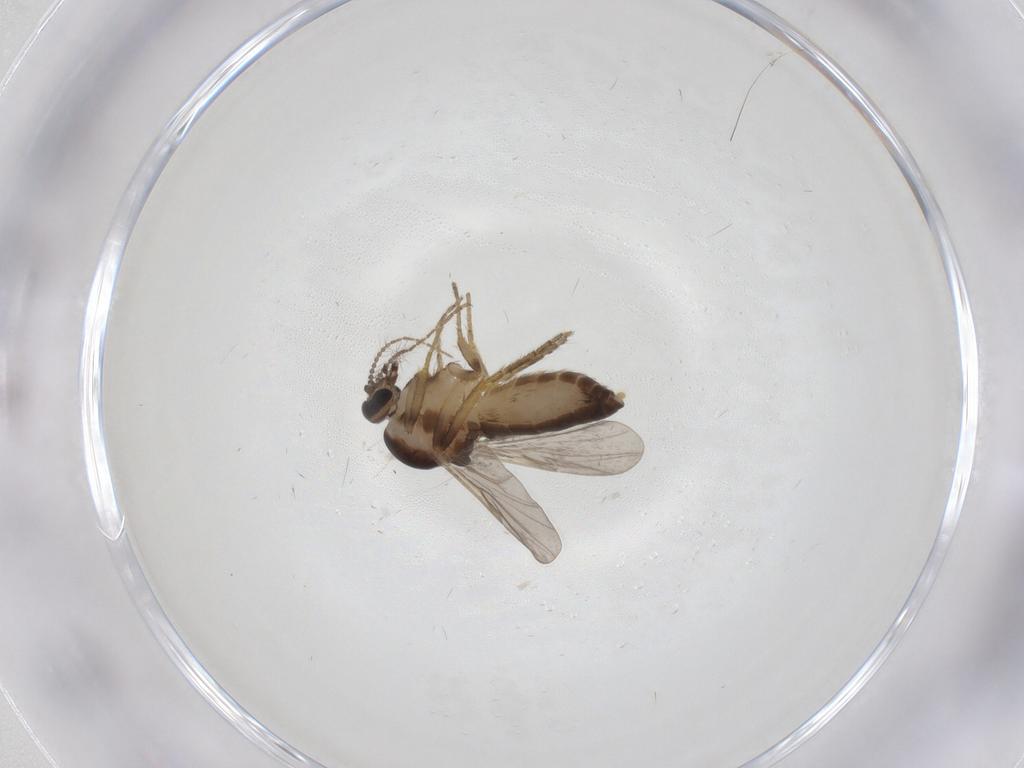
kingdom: Animalia
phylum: Arthropoda
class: Insecta
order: Diptera
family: Ceratopogonidae
